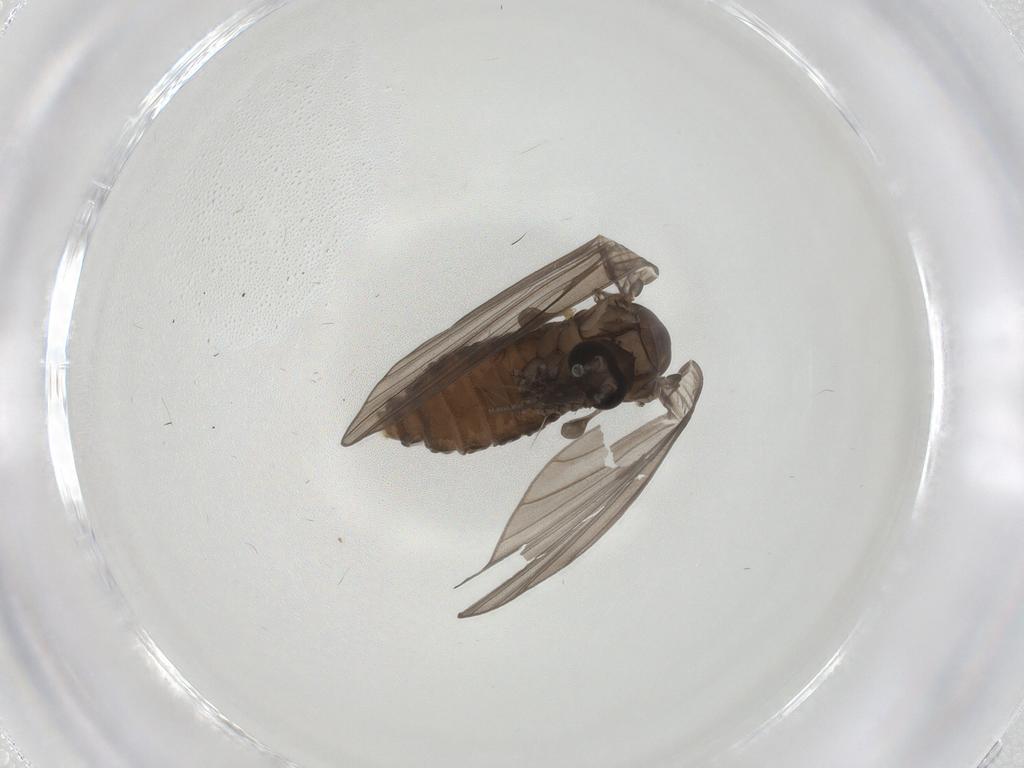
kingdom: Animalia
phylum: Arthropoda
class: Insecta
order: Diptera
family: Psychodidae
